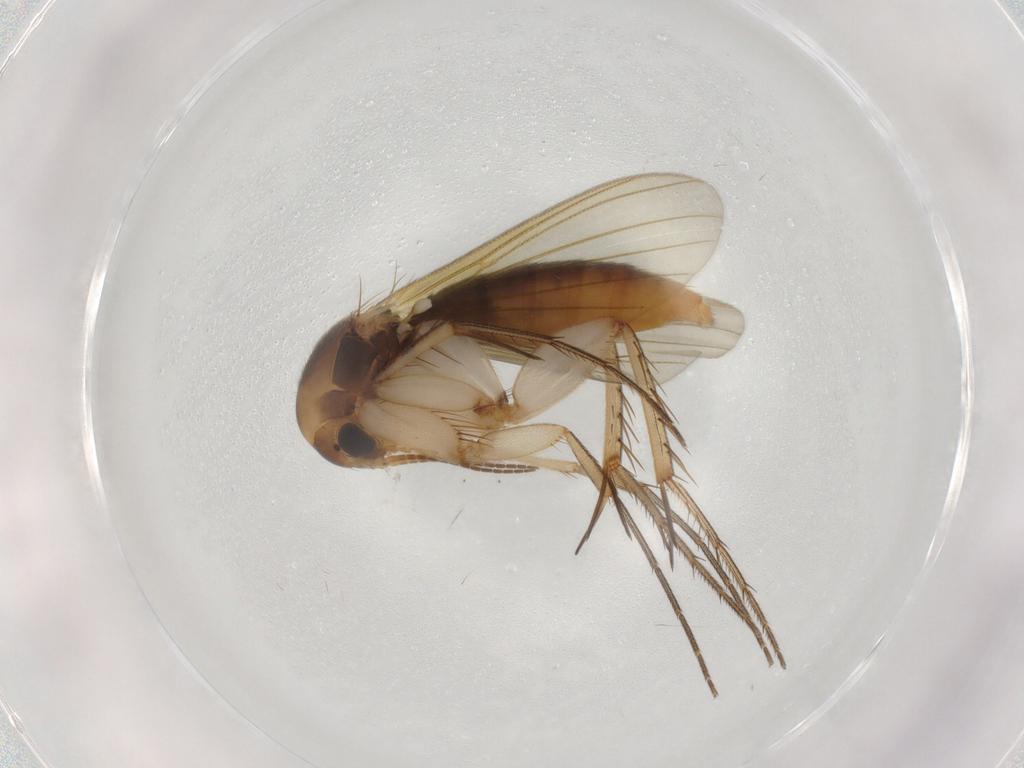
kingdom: Animalia
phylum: Arthropoda
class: Insecta
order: Diptera
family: Mycetophilidae
